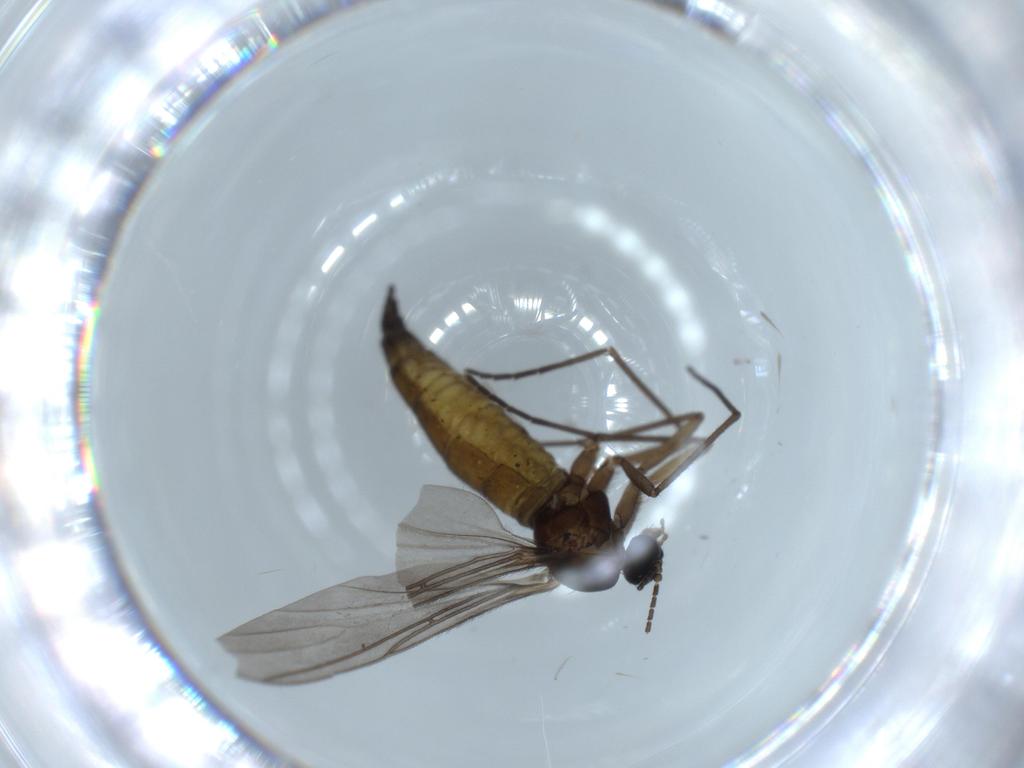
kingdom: Animalia
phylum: Arthropoda
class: Insecta
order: Diptera
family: Sciaridae
